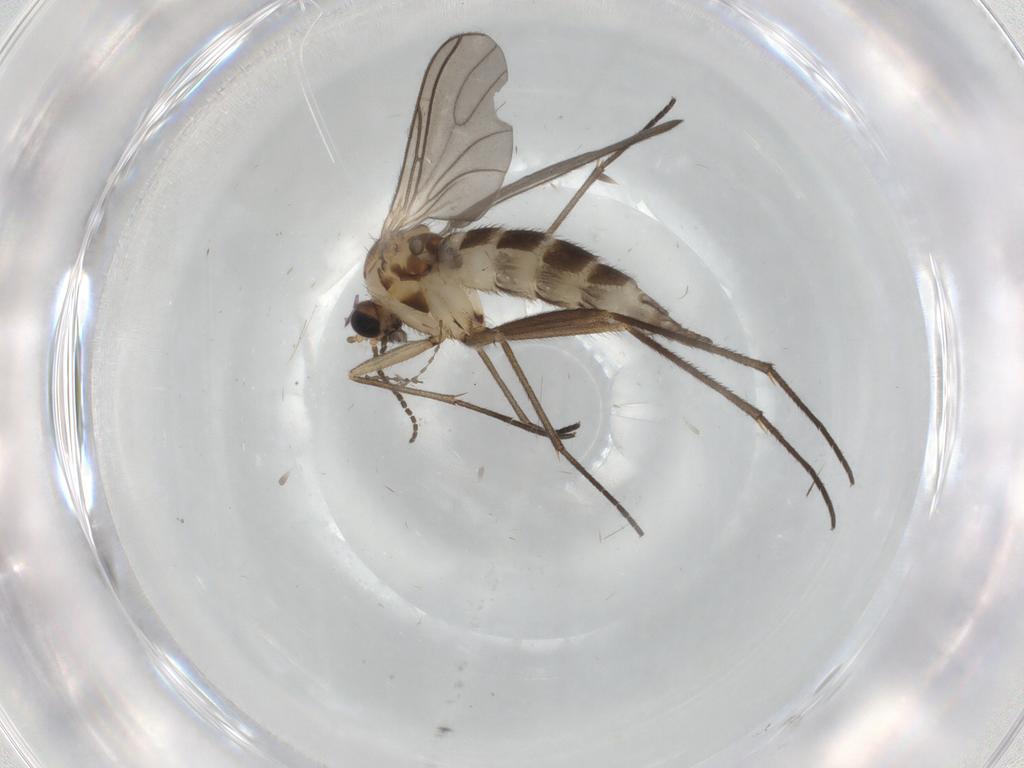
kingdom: Animalia
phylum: Arthropoda
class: Insecta
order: Diptera
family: Sciaridae
